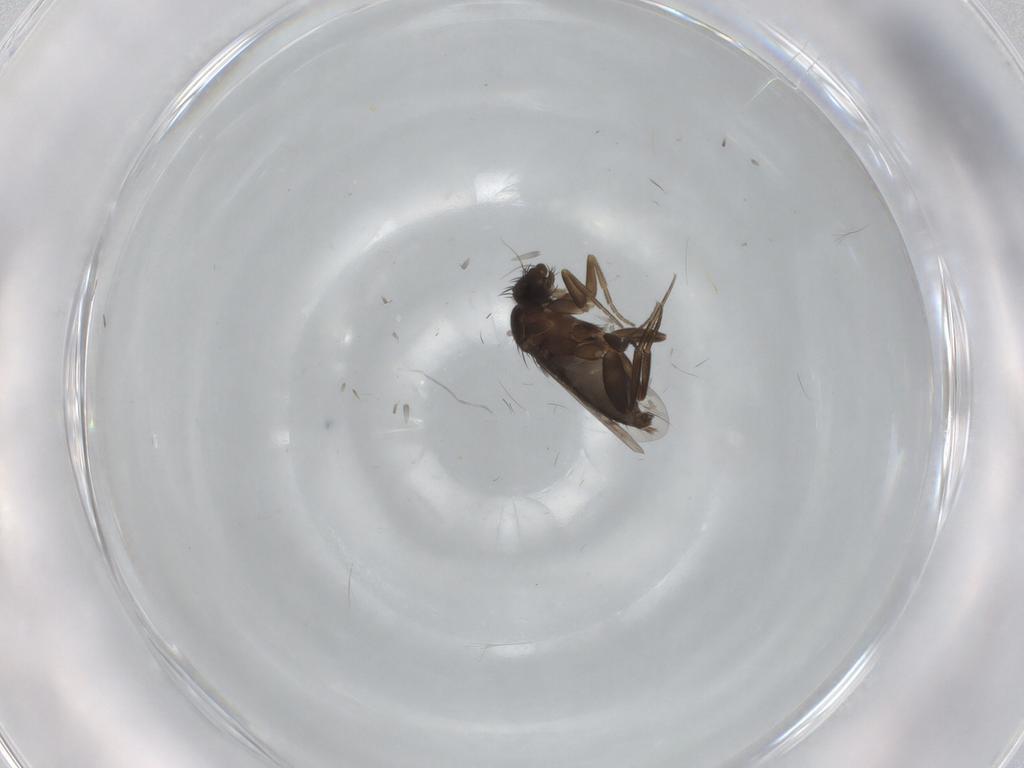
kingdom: Animalia
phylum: Arthropoda
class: Insecta
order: Diptera
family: Phoridae
